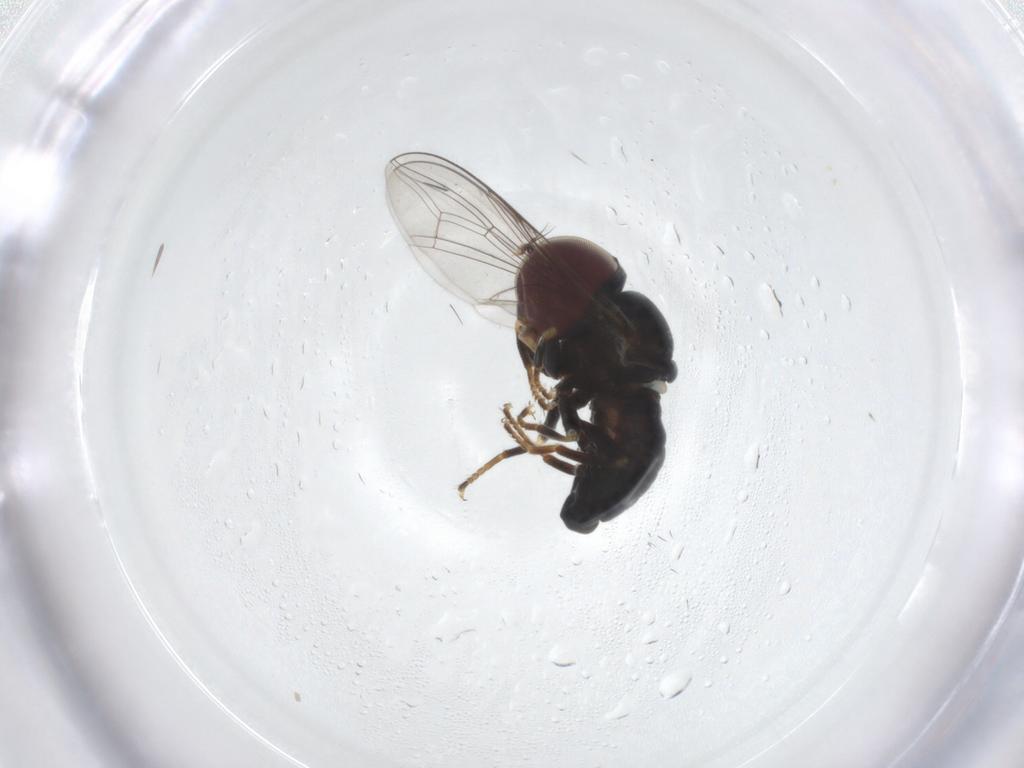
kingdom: Animalia
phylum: Arthropoda
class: Insecta
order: Diptera
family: Pipunculidae
